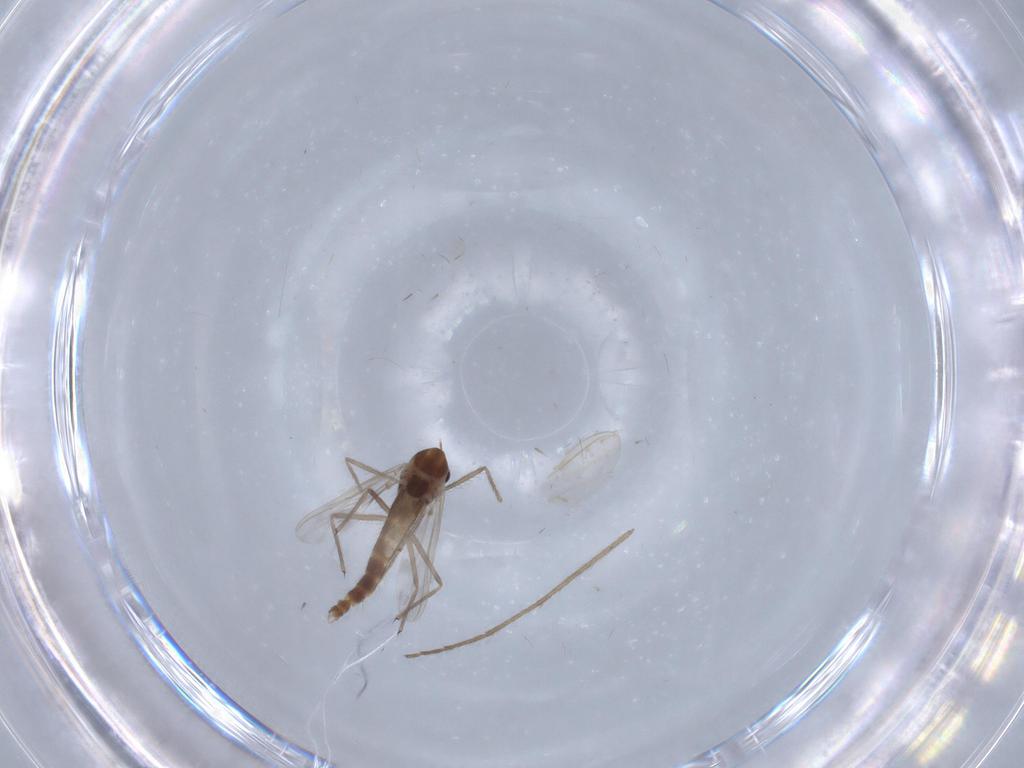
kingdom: Animalia
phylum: Arthropoda
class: Insecta
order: Diptera
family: Chironomidae
